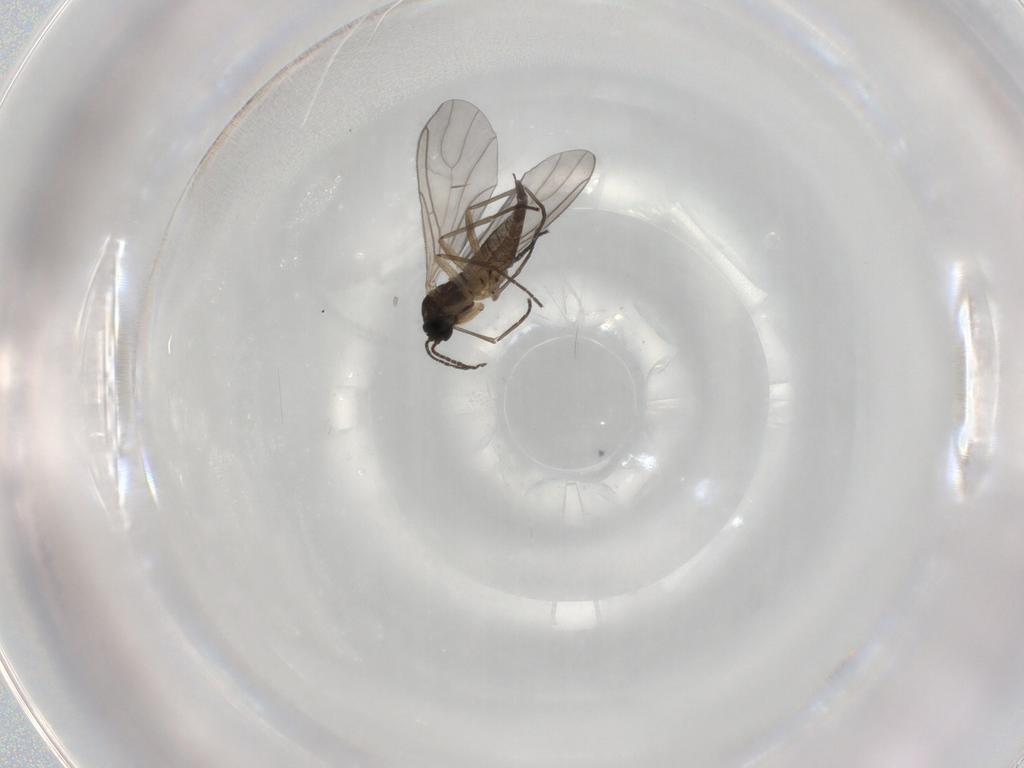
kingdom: Animalia
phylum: Arthropoda
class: Insecta
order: Diptera
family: Sciaridae
